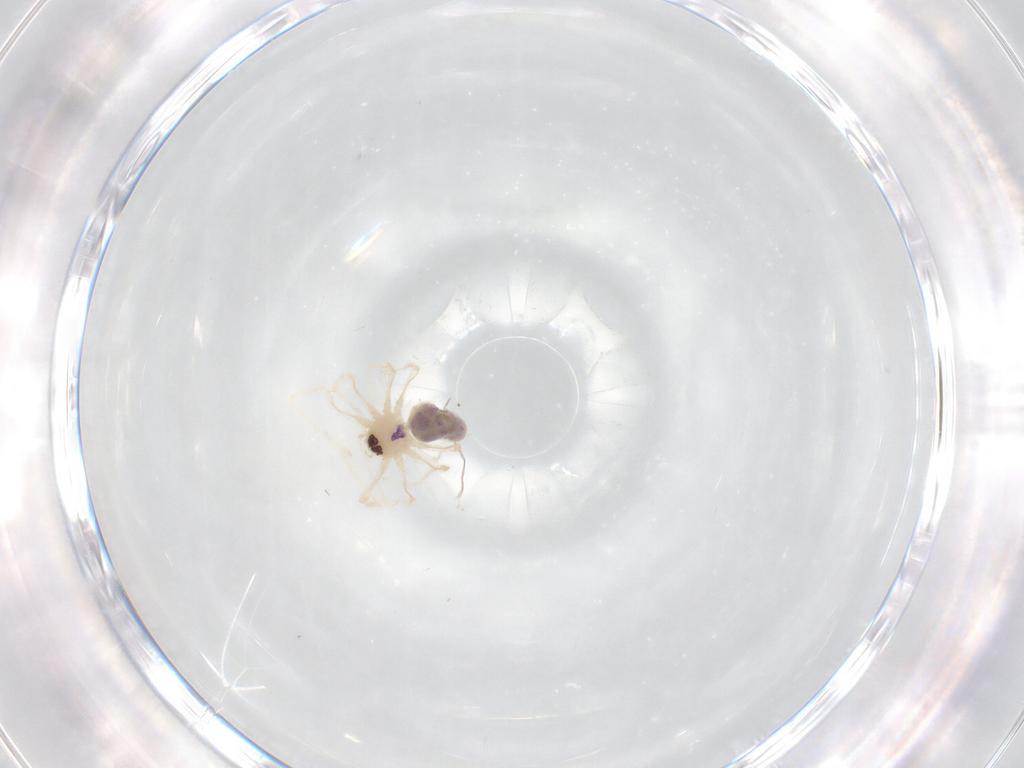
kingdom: Animalia
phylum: Arthropoda
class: Arachnida
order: Araneae
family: Pholcidae
